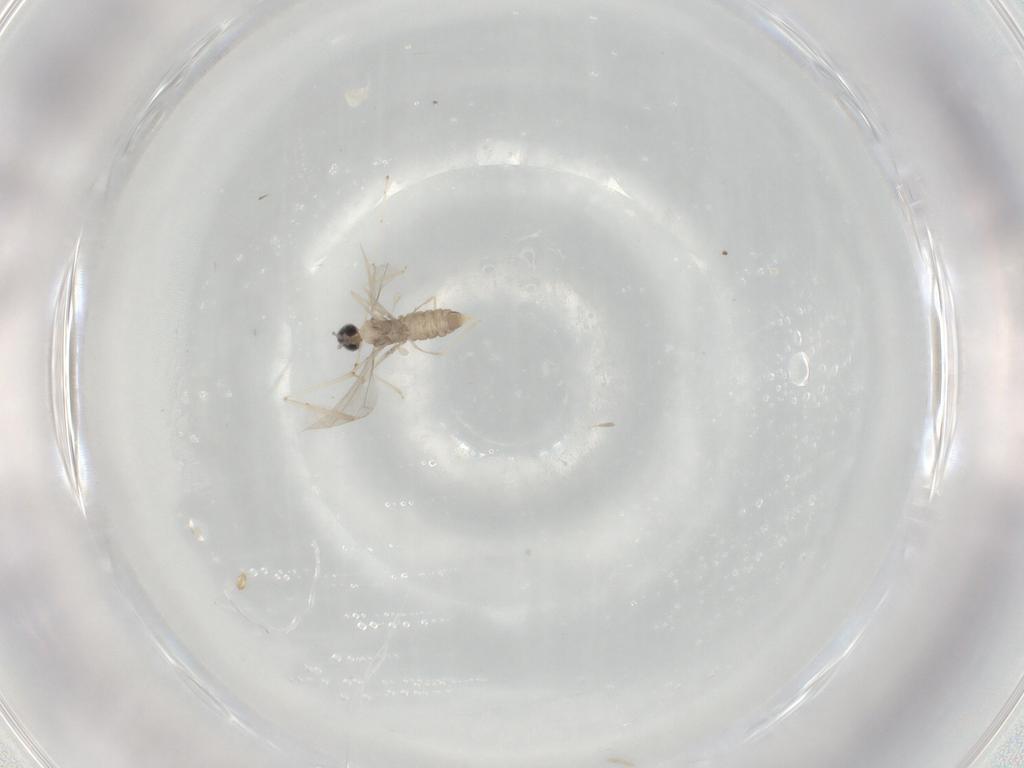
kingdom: Animalia
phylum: Arthropoda
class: Insecta
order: Diptera
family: Cecidomyiidae
